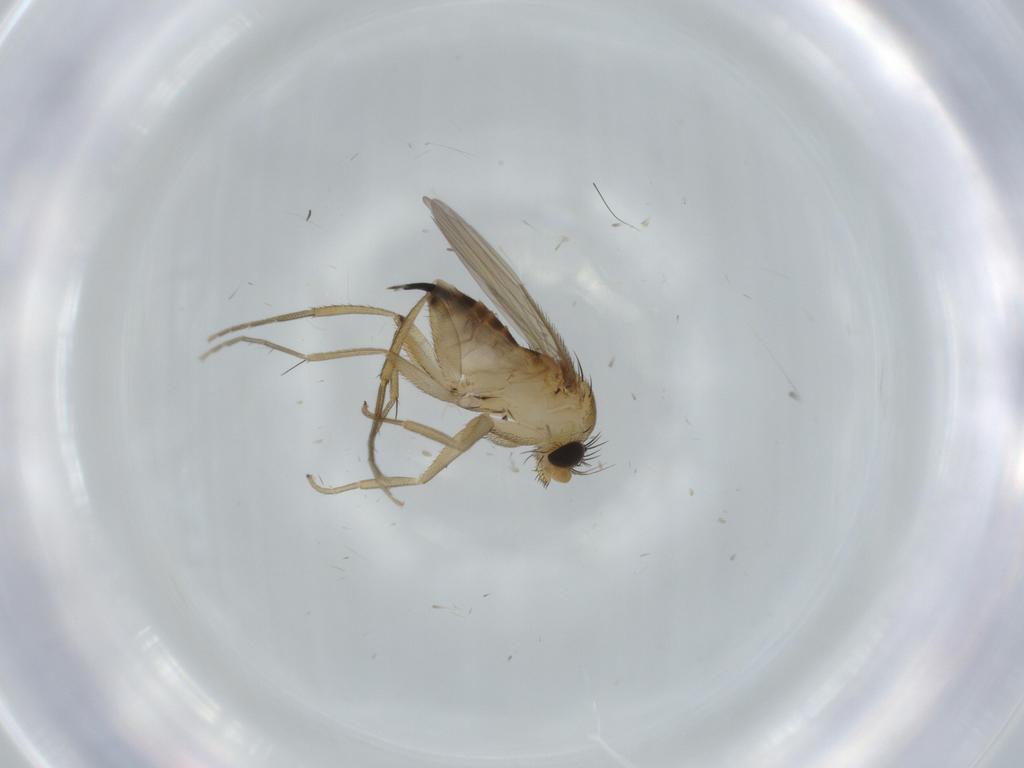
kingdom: Animalia
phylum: Arthropoda
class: Insecta
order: Diptera
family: Phoridae
